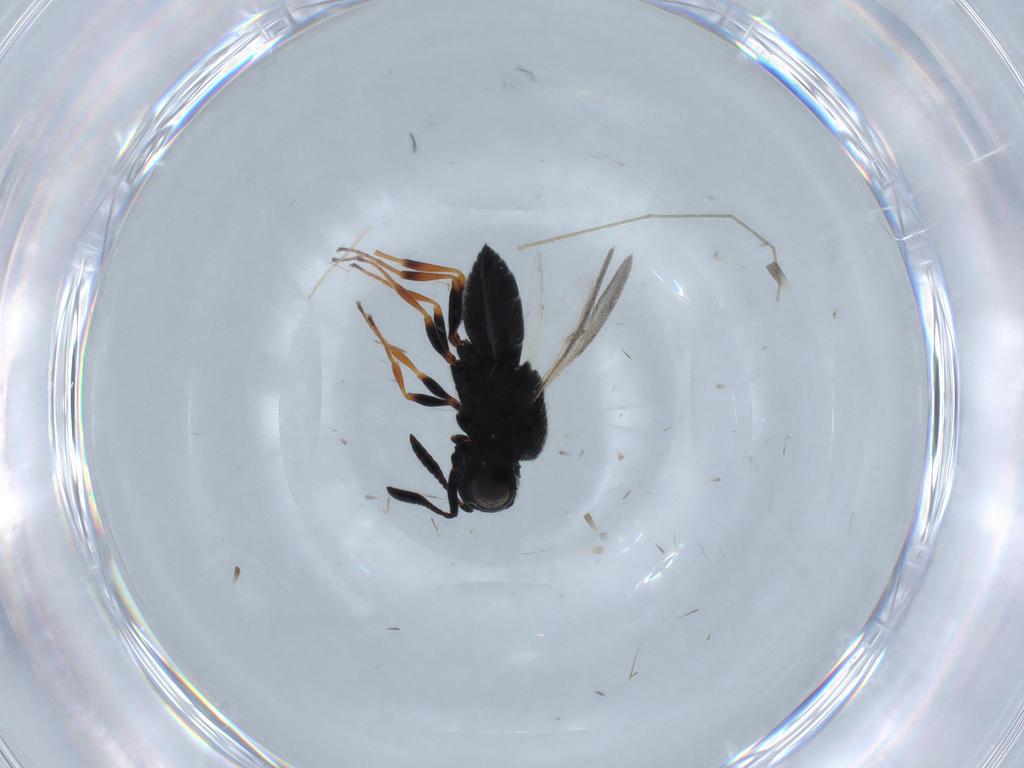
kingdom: Animalia
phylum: Arthropoda
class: Insecta
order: Hymenoptera
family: Scelionidae
